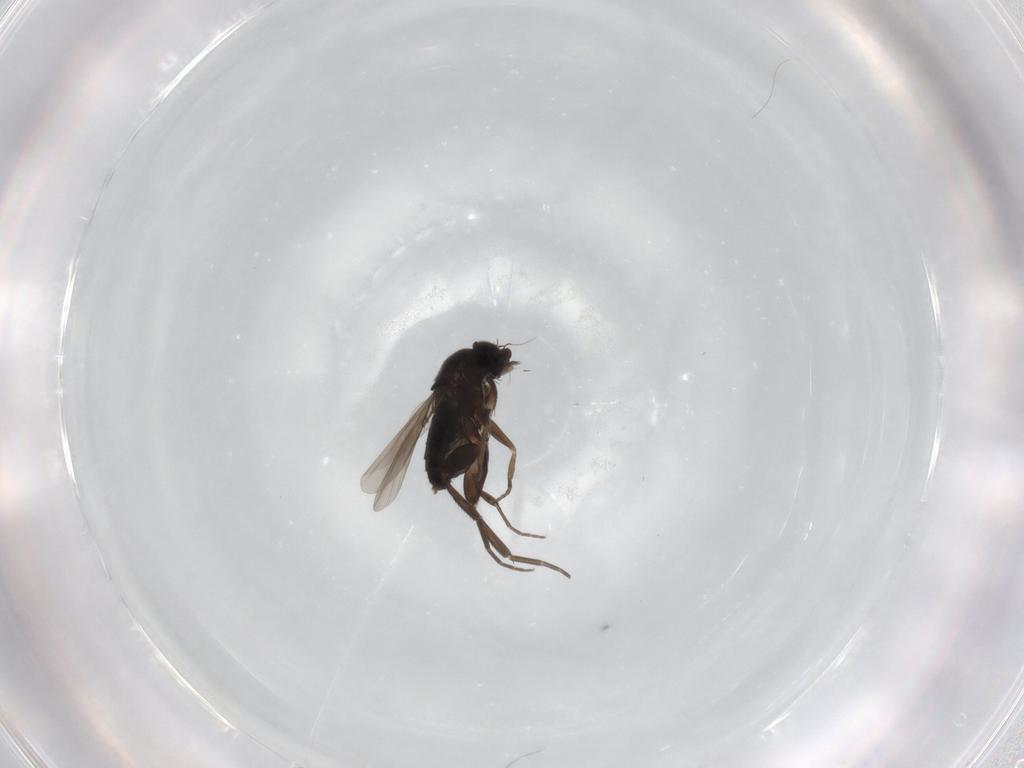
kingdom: Animalia
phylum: Arthropoda
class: Insecta
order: Diptera
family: Phoridae
